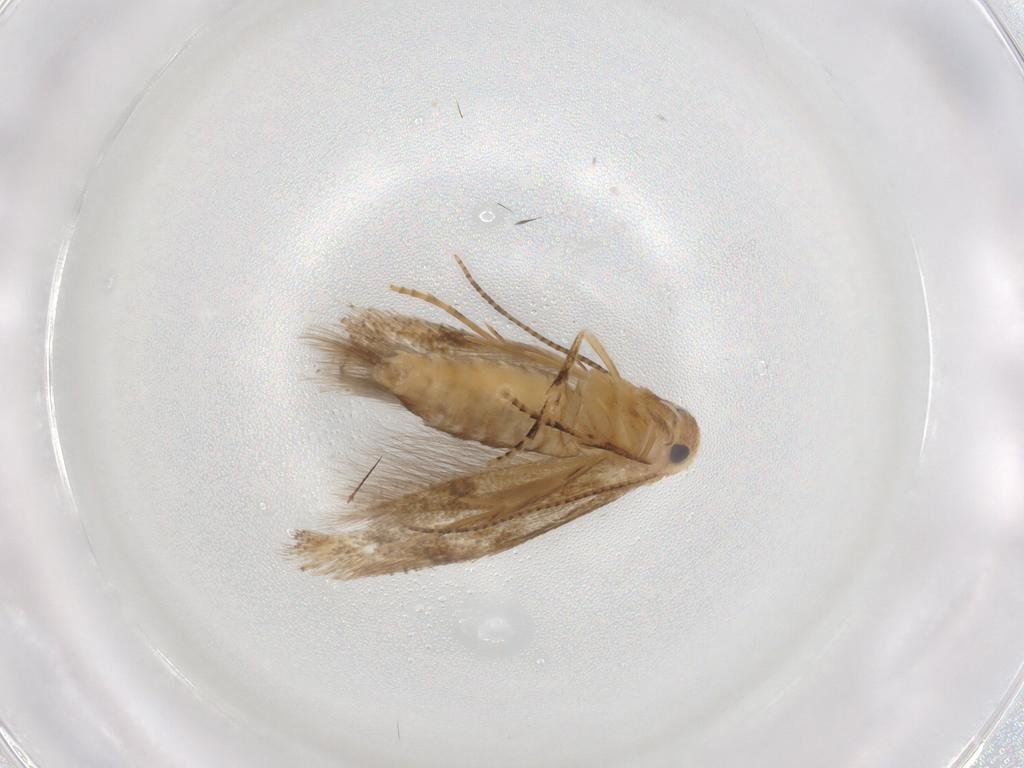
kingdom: Animalia
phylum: Arthropoda
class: Insecta
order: Lepidoptera
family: Bucculatricidae
